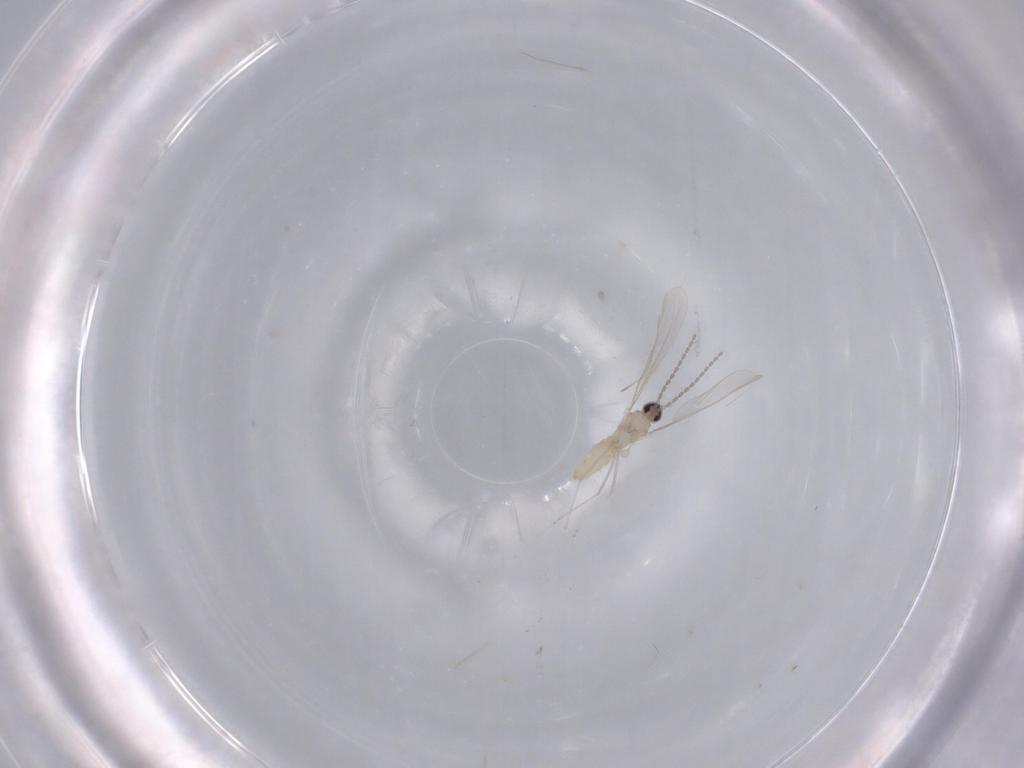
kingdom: Animalia
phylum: Arthropoda
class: Insecta
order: Diptera
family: Cecidomyiidae
